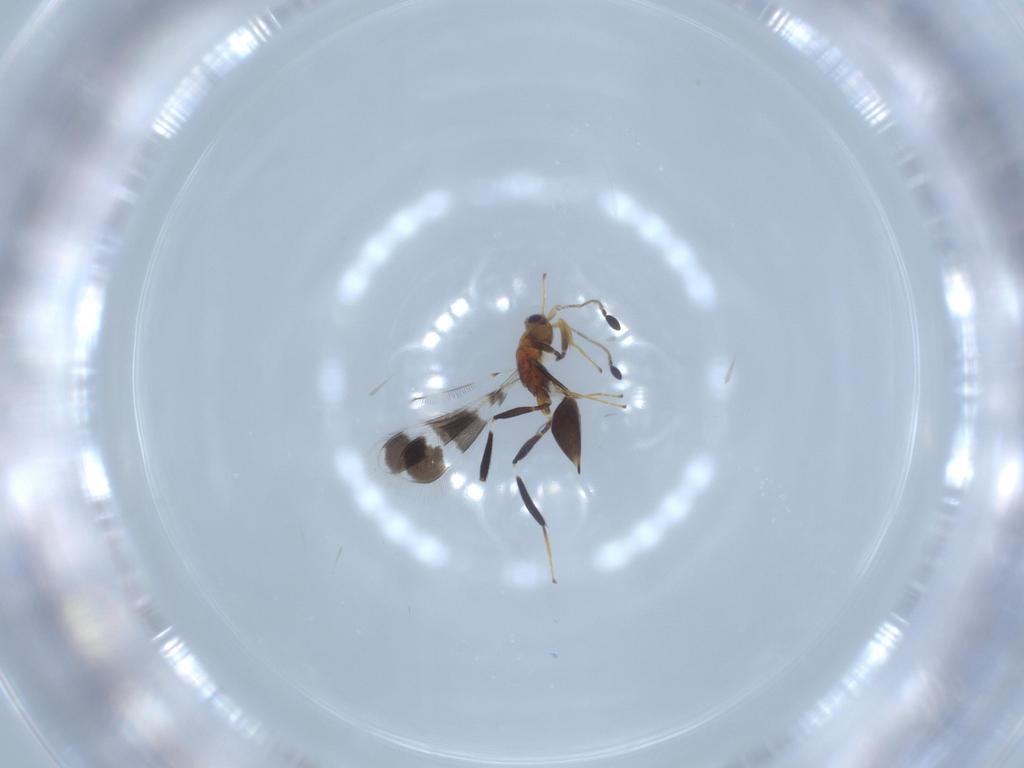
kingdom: Animalia
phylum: Arthropoda
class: Insecta
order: Hymenoptera
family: Mymaridae
